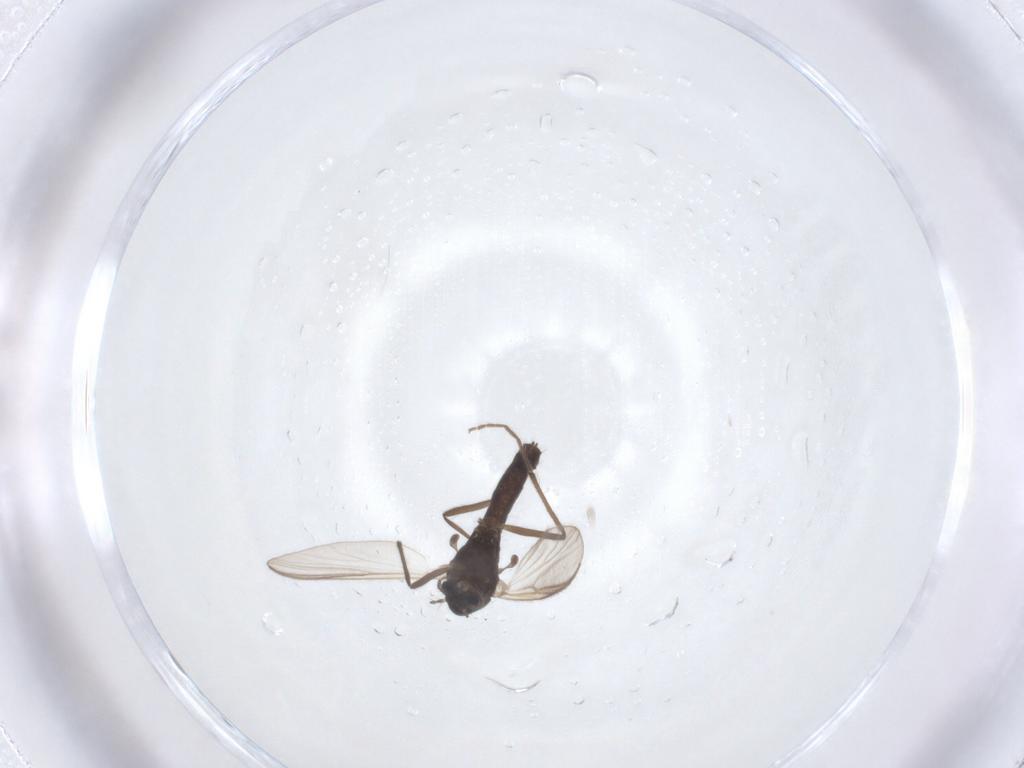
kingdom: Animalia
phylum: Arthropoda
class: Insecta
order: Diptera
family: Chironomidae
